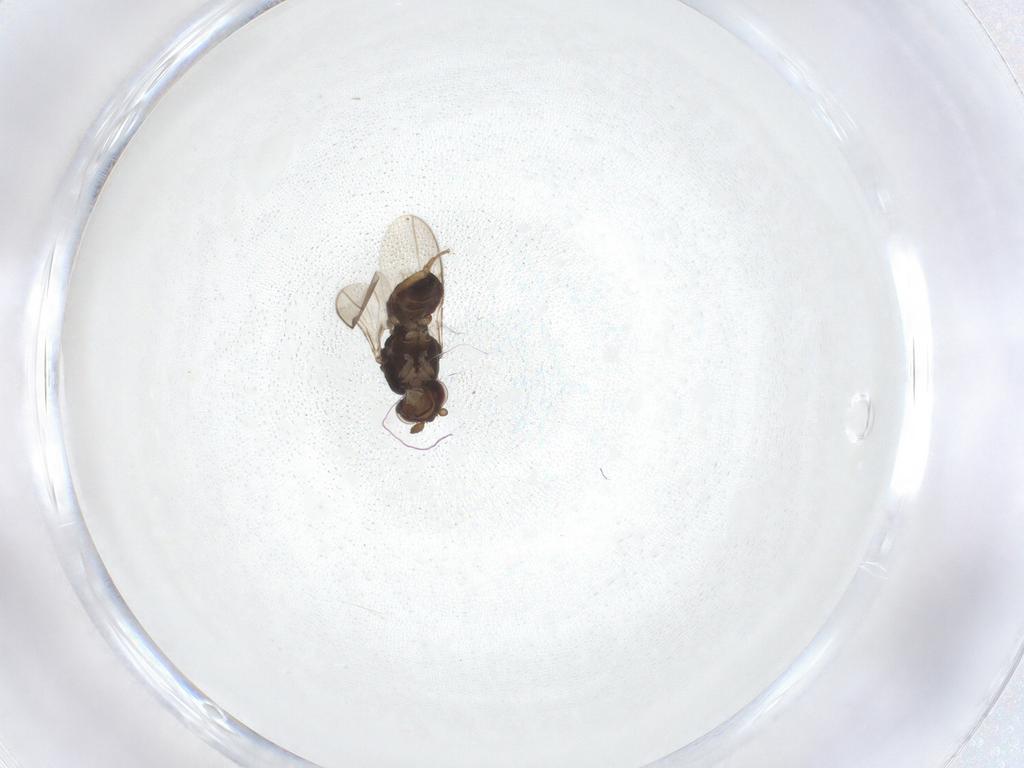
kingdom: Animalia
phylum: Arthropoda
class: Insecta
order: Diptera
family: Sphaeroceridae
